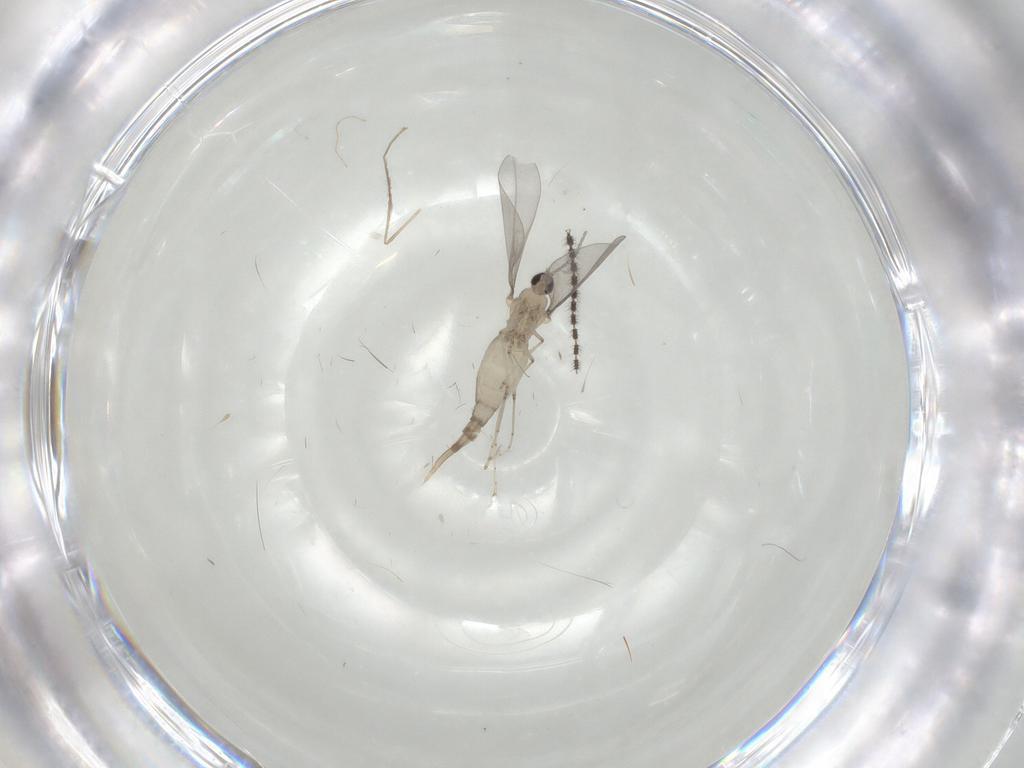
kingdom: Animalia
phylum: Arthropoda
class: Insecta
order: Diptera
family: Cecidomyiidae
